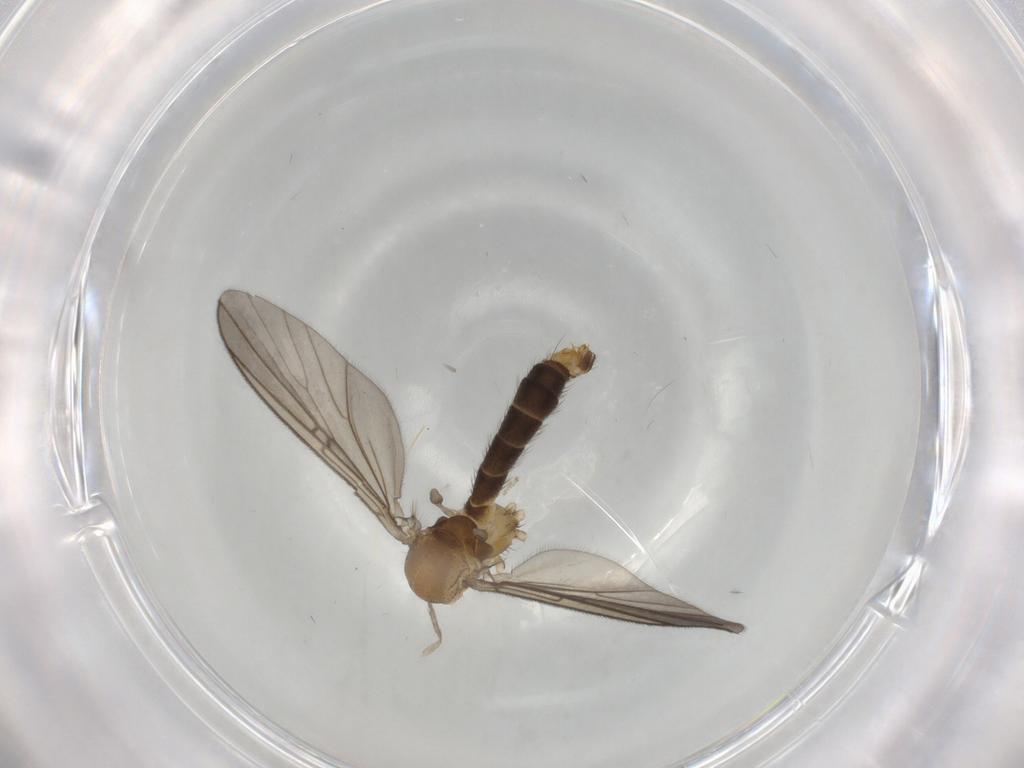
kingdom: Animalia
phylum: Arthropoda
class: Insecta
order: Diptera
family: Mycetophilidae
